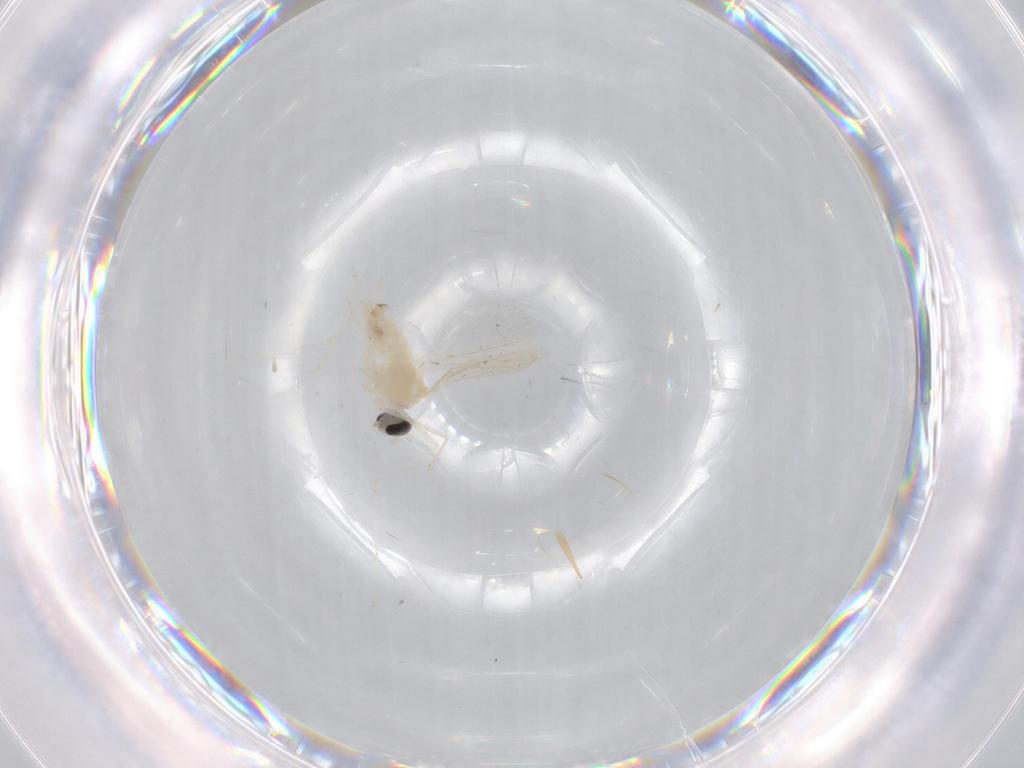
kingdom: Animalia
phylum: Arthropoda
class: Insecta
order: Diptera
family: Cecidomyiidae
